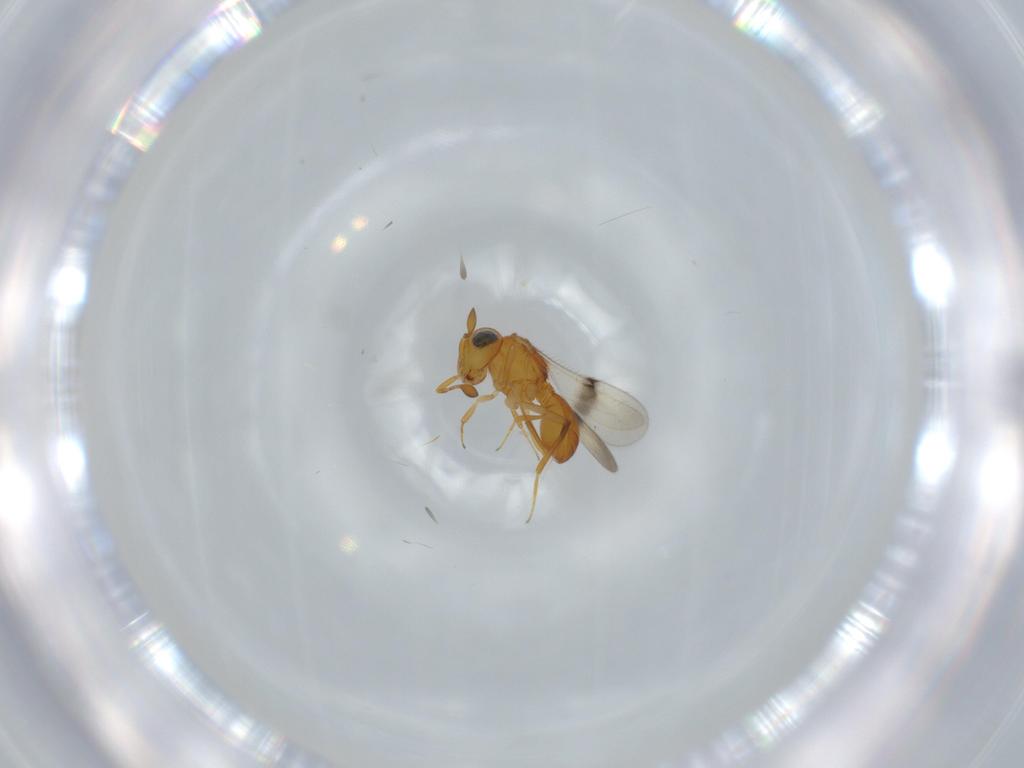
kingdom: Animalia
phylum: Arthropoda
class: Insecta
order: Hymenoptera
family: Scelionidae
